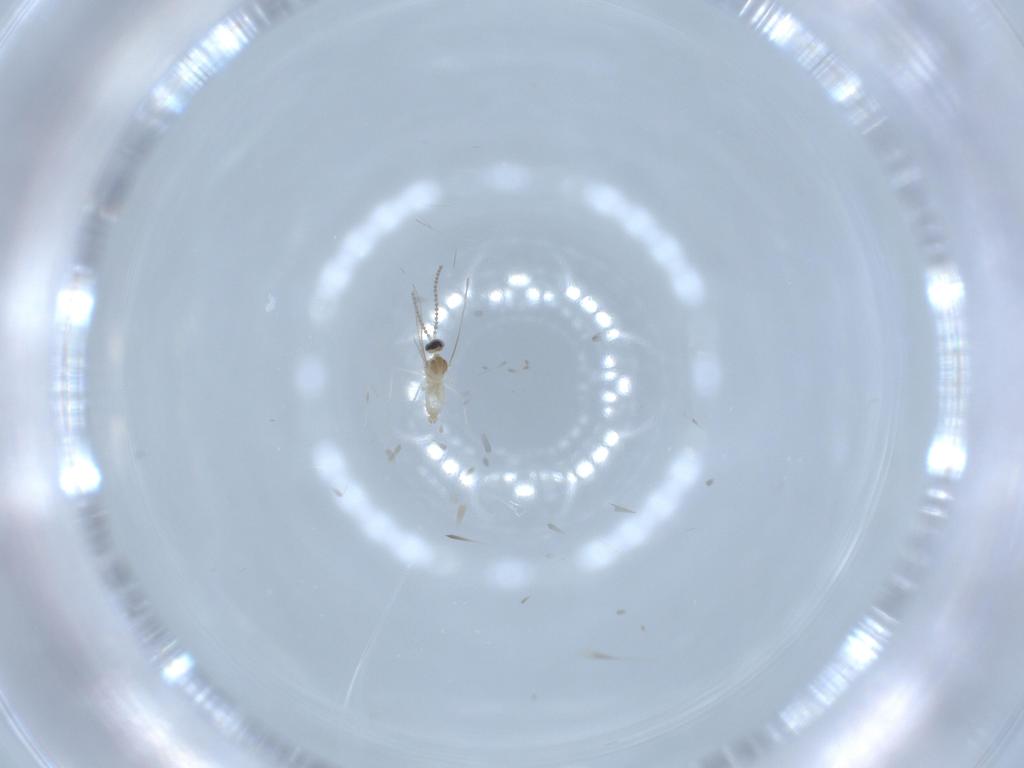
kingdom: Animalia
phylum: Arthropoda
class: Insecta
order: Diptera
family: Cecidomyiidae
